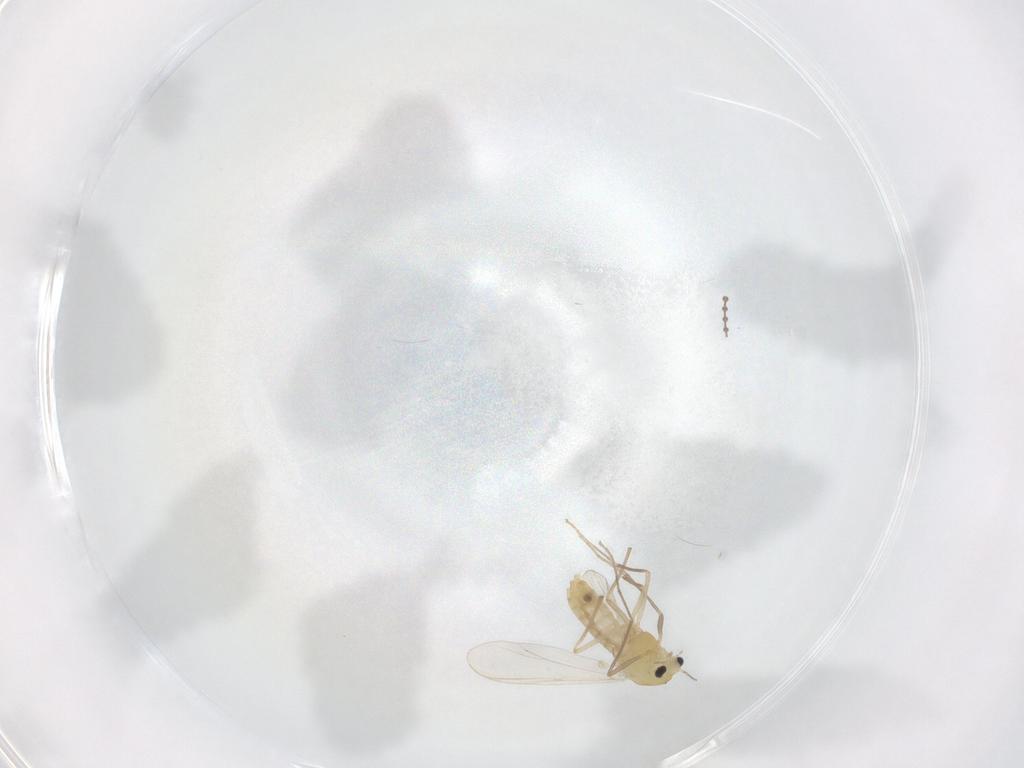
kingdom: Animalia
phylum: Arthropoda
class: Insecta
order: Diptera
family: Chironomidae
